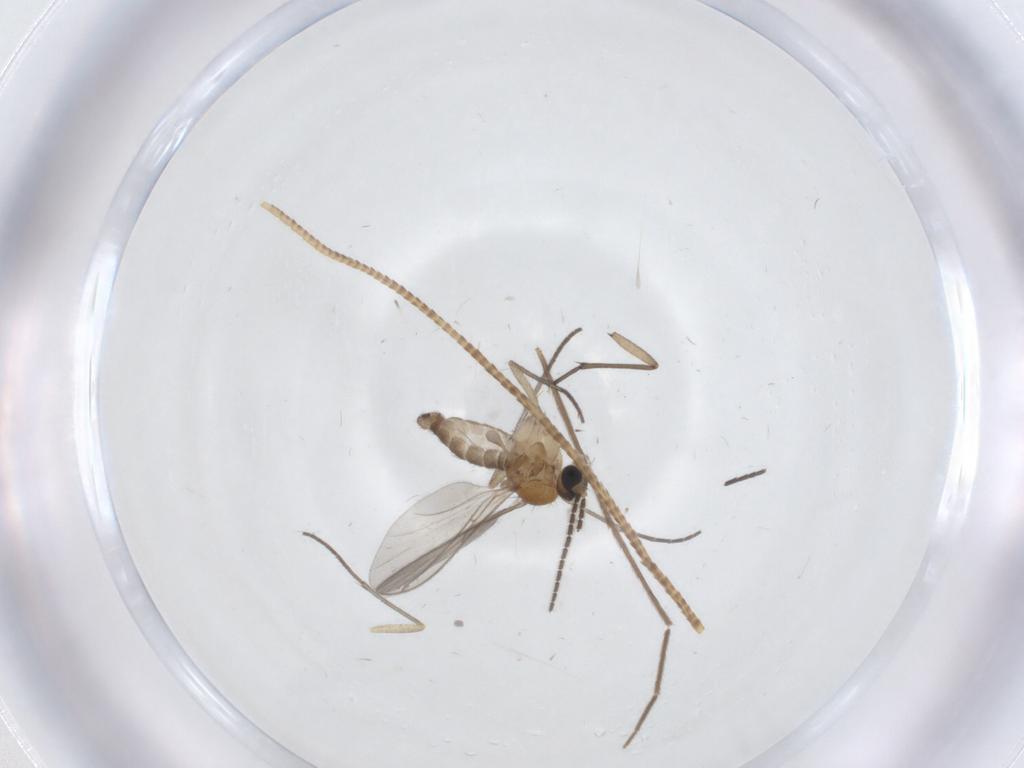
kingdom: Animalia
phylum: Arthropoda
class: Insecta
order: Diptera
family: Sciaridae
